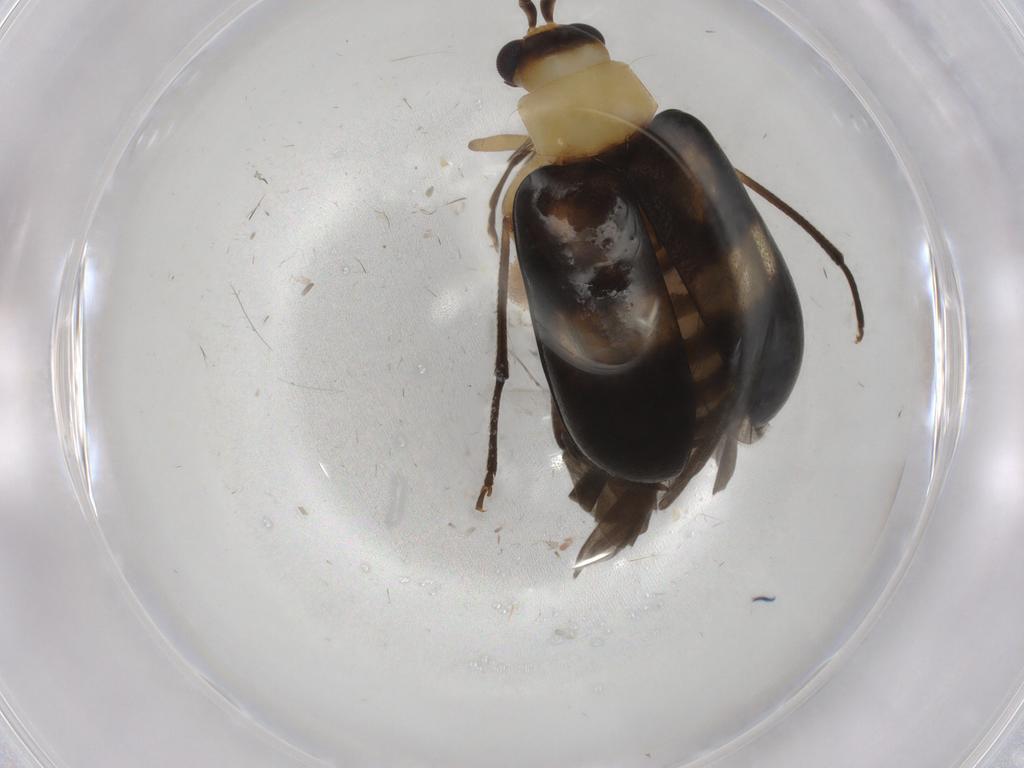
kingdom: Animalia
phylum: Arthropoda
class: Insecta
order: Coleoptera
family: Chrysomelidae
